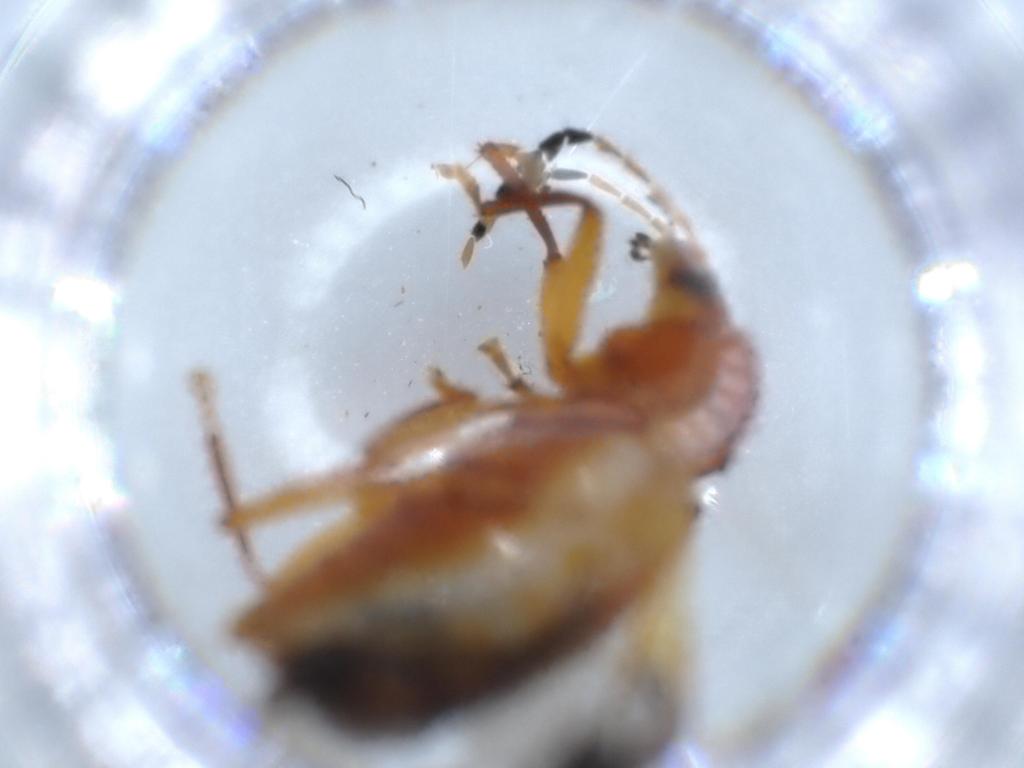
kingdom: Animalia
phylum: Arthropoda
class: Insecta
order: Coleoptera
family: Ptilodactylidae
